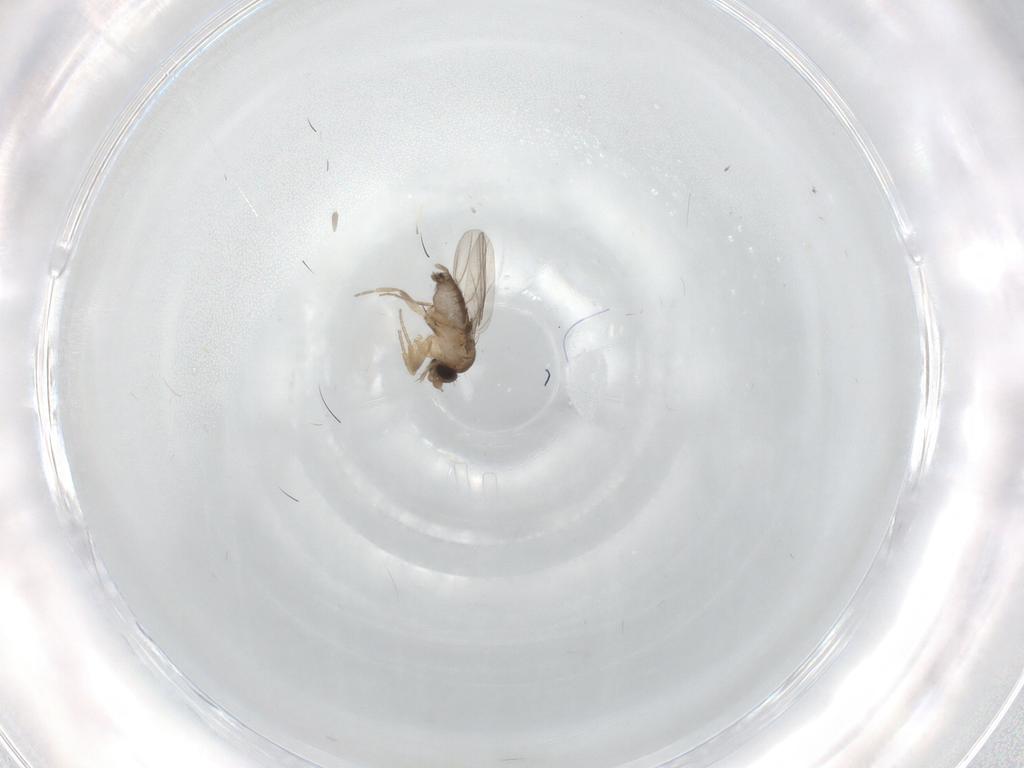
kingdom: Animalia
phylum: Arthropoda
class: Insecta
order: Diptera
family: Phoridae
